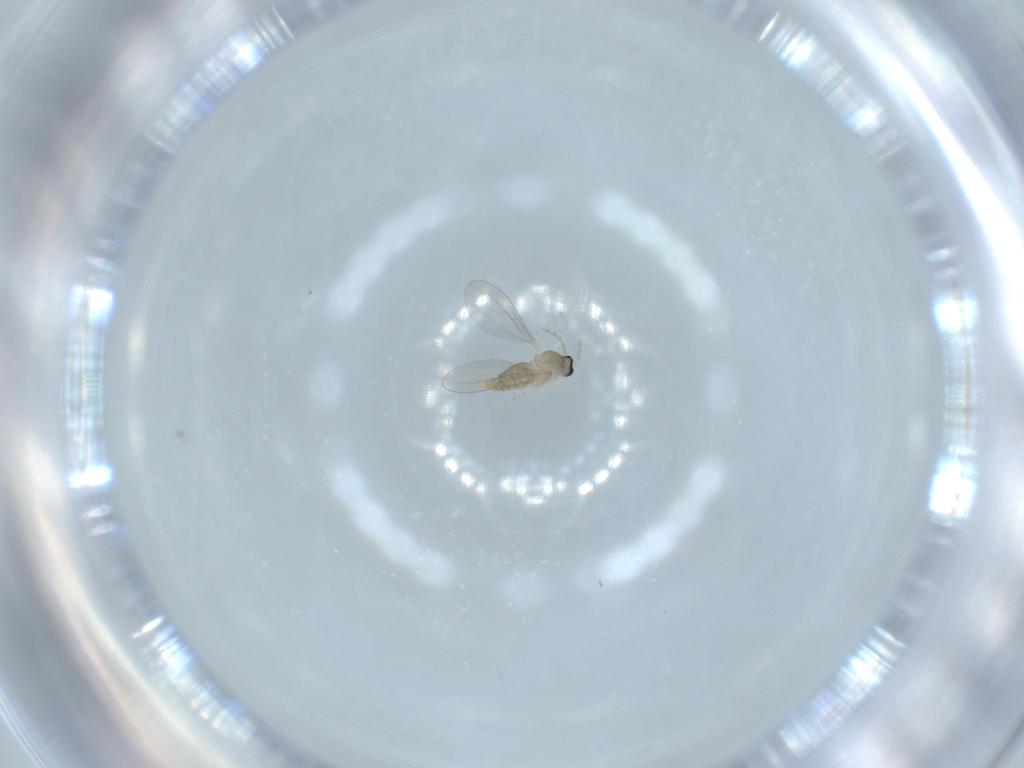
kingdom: Animalia
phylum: Arthropoda
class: Insecta
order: Diptera
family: Cecidomyiidae
